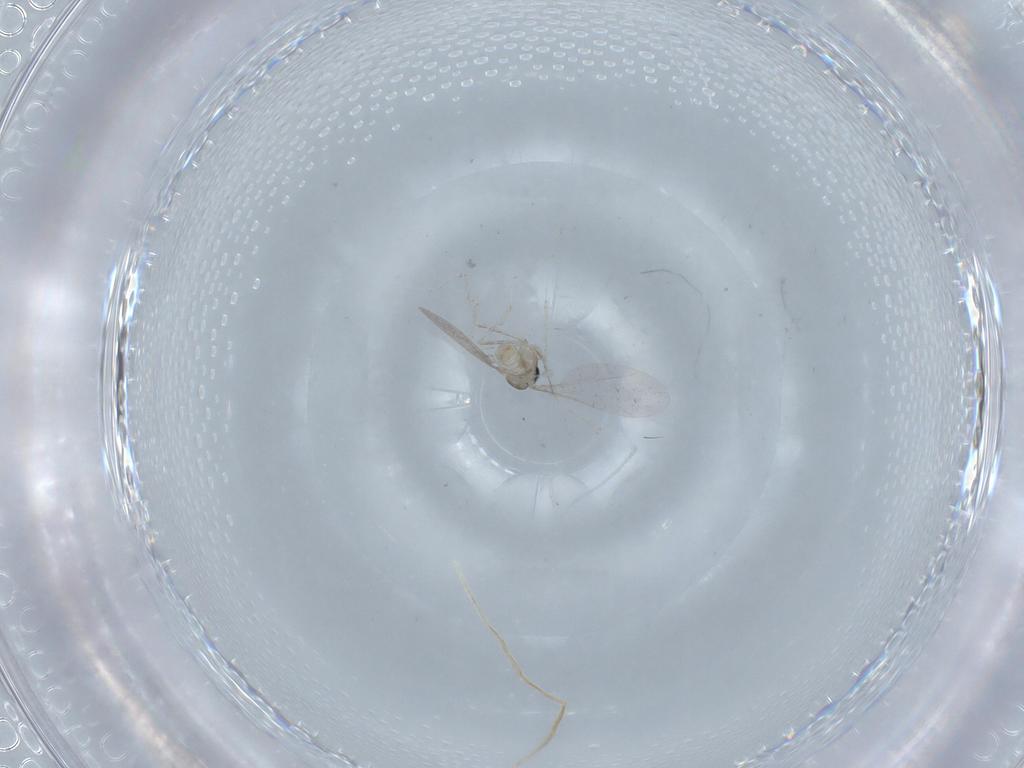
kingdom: Animalia
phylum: Arthropoda
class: Insecta
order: Diptera
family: Cecidomyiidae
